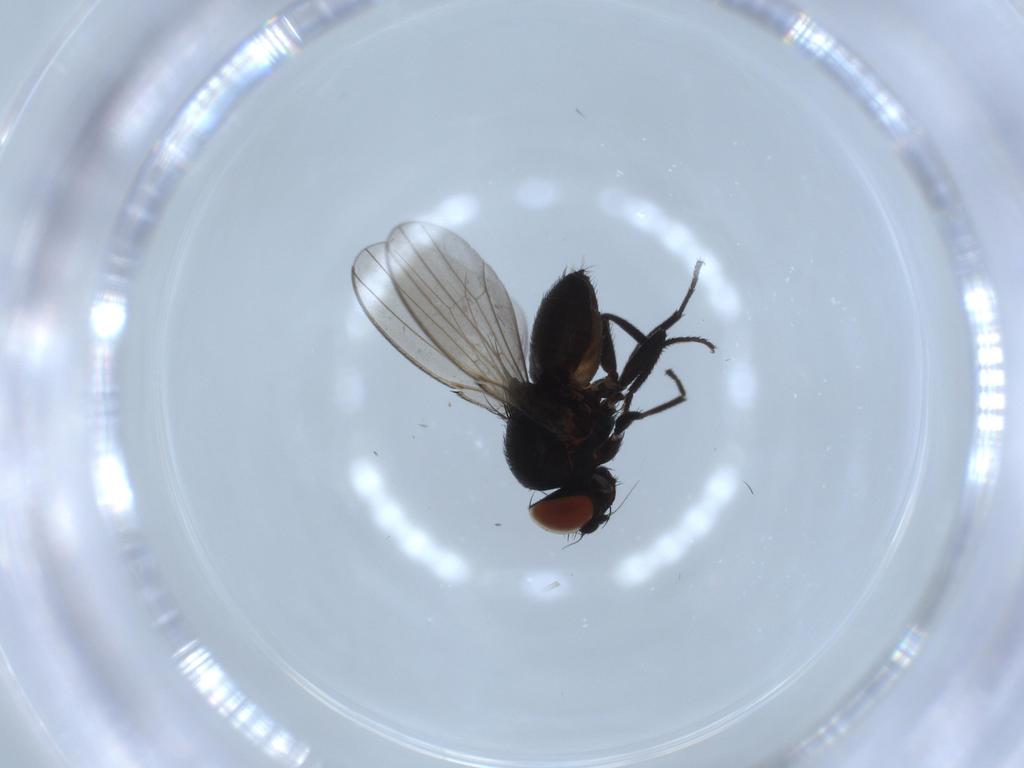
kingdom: Animalia
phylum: Arthropoda
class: Insecta
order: Diptera
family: Milichiidae
